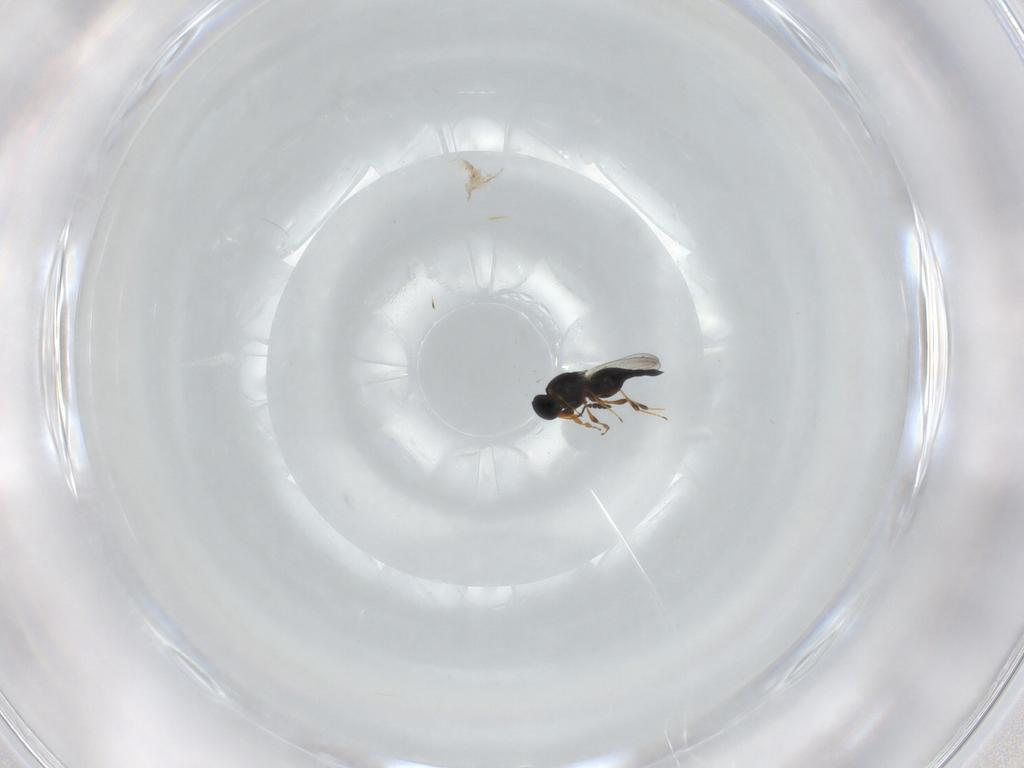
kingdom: Animalia
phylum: Arthropoda
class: Insecta
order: Hymenoptera
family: Platygastridae
